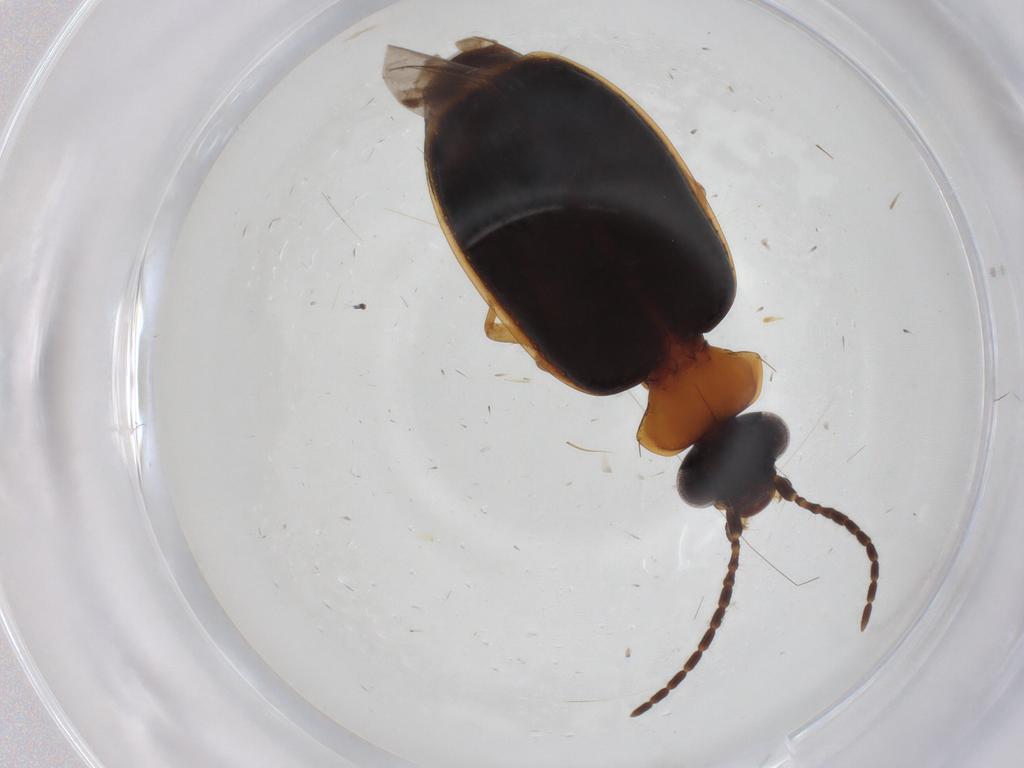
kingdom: Animalia
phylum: Arthropoda
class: Insecta
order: Coleoptera
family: Carabidae
